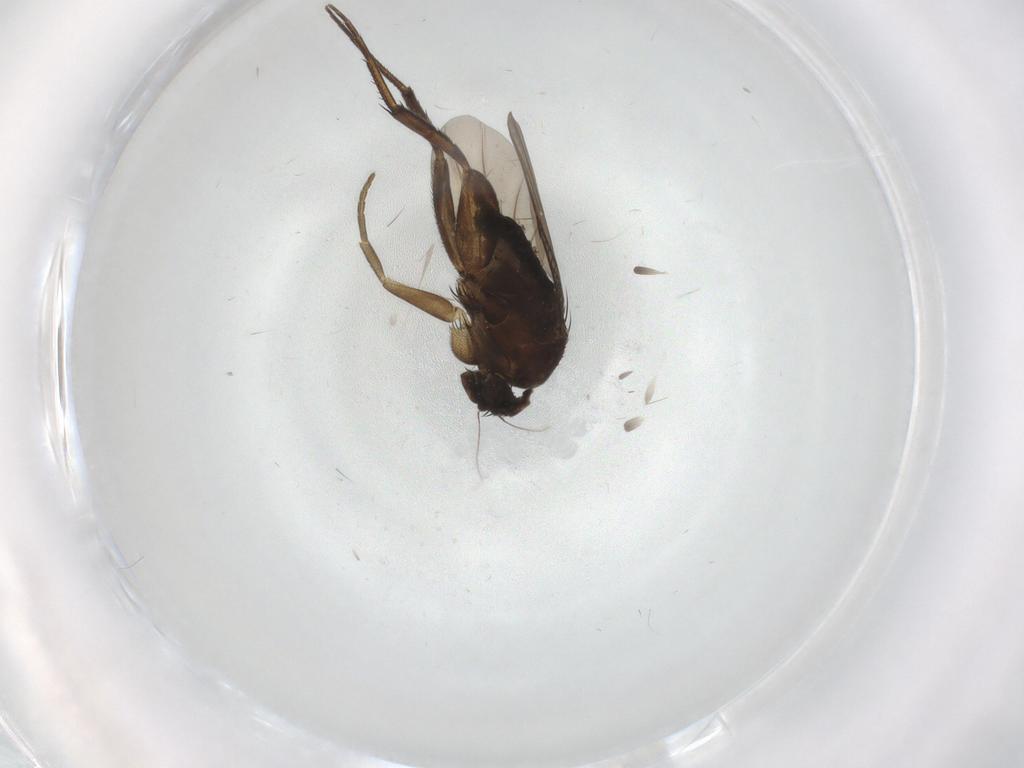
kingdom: Animalia
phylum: Arthropoda
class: Insecta
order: Diptera
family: Phoridae
